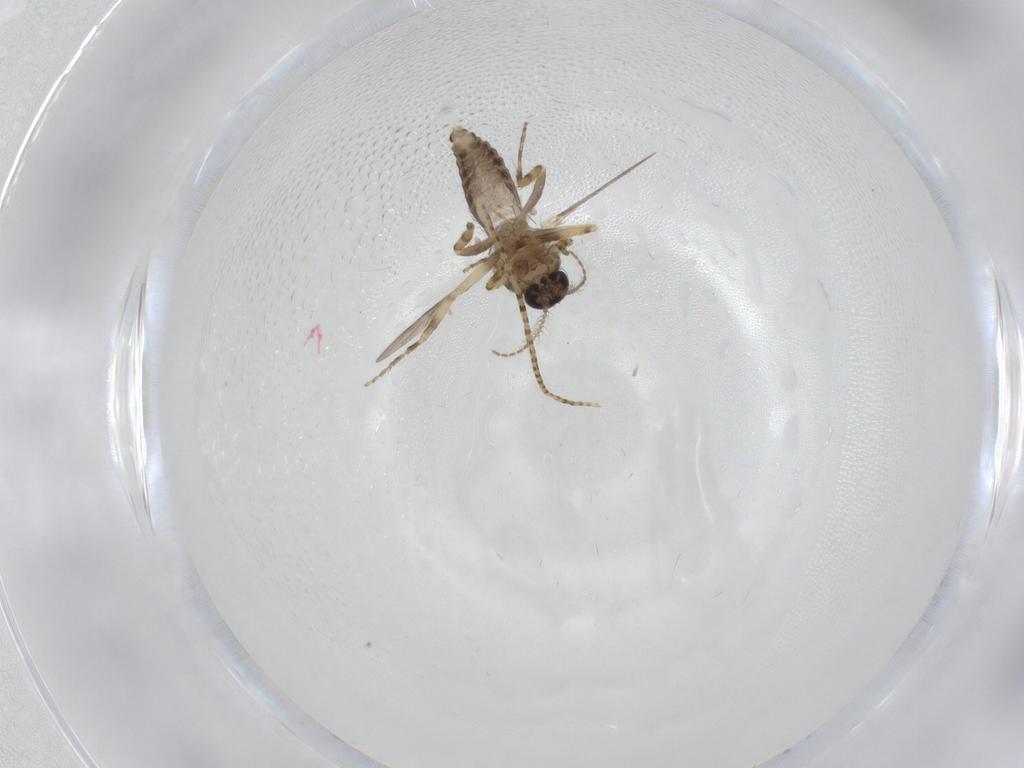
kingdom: Animalia
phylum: Arthropoda
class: Insecta
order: Diptera
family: Ceratopogonidae
